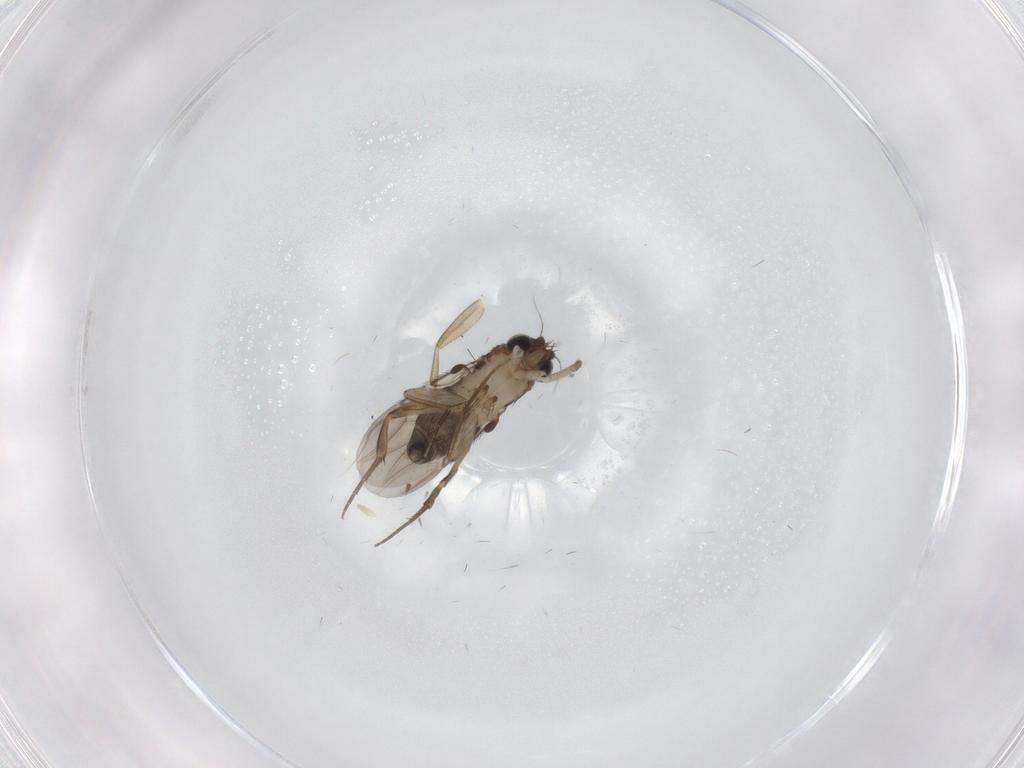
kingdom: Animalia
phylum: Arthropoda
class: Insecta
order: Diptera
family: Phoridae
